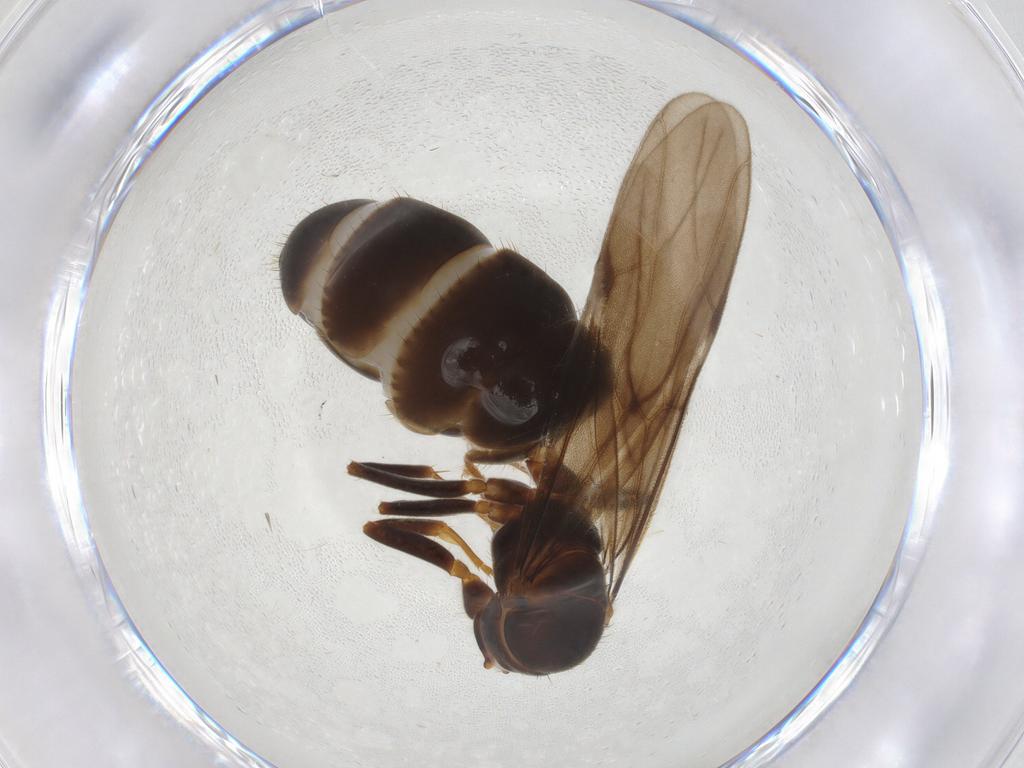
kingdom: Animalia
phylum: Arthropoda
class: Insecta
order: Hymenoptera
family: Formicidae
